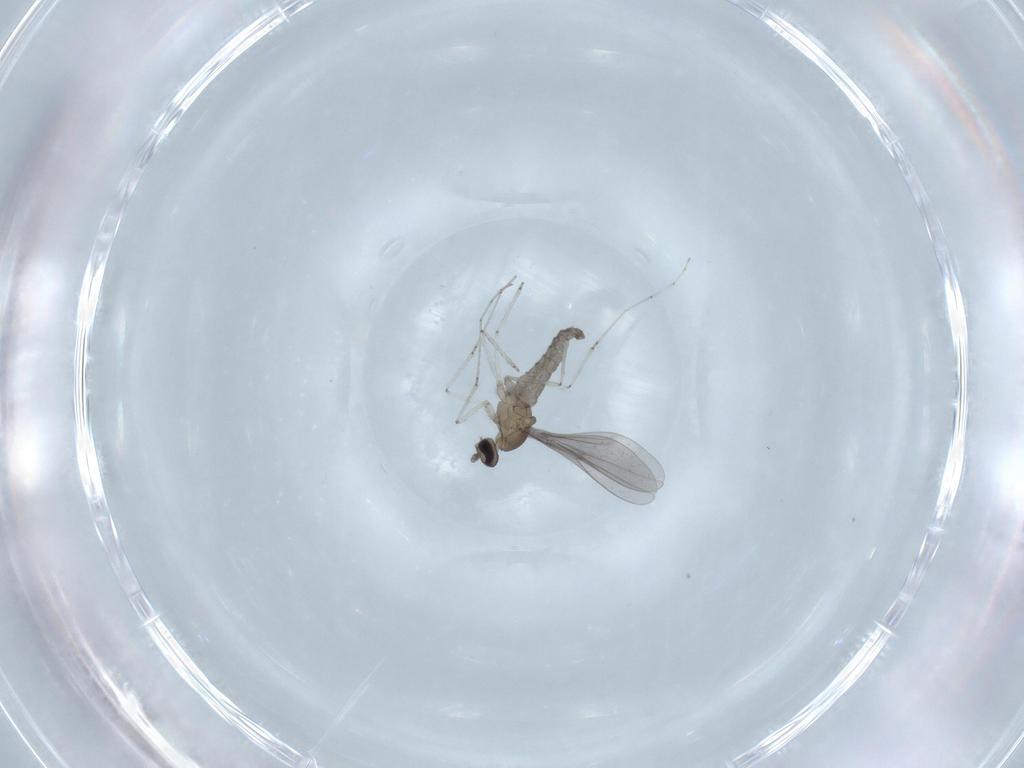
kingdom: Animalia
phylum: Arthropoda
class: Insecta
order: Diptera
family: Cecidomyiidae
